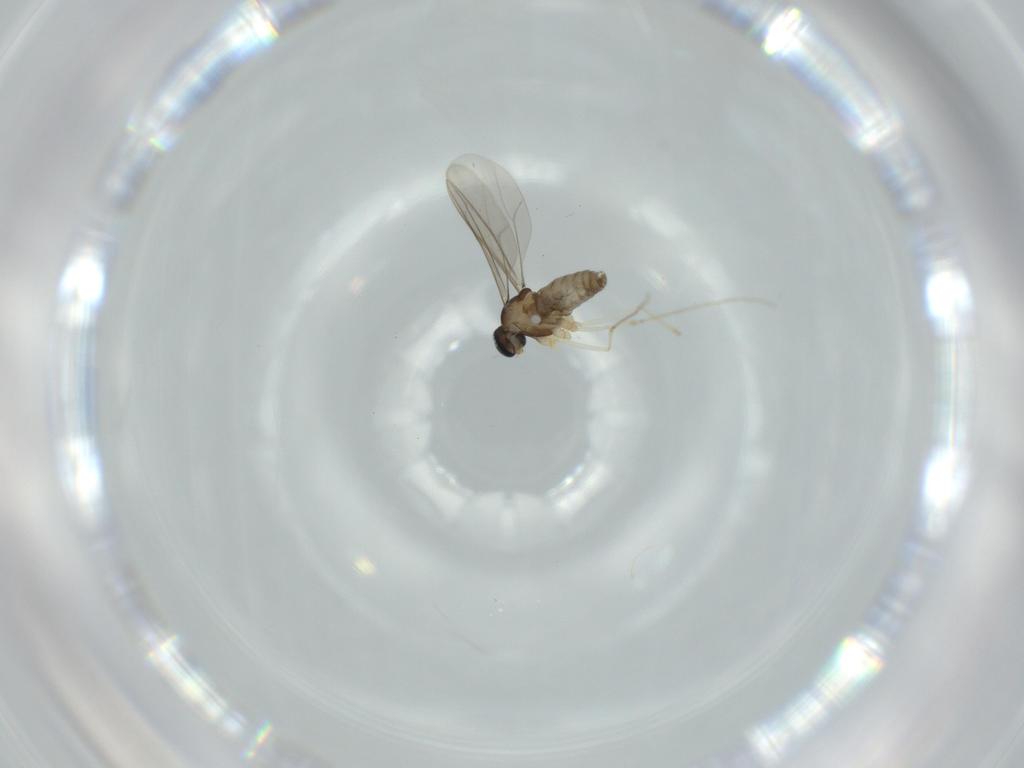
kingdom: Animalia
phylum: Arthropoda
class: Insecta
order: Diptera
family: Cecidomyiidae
